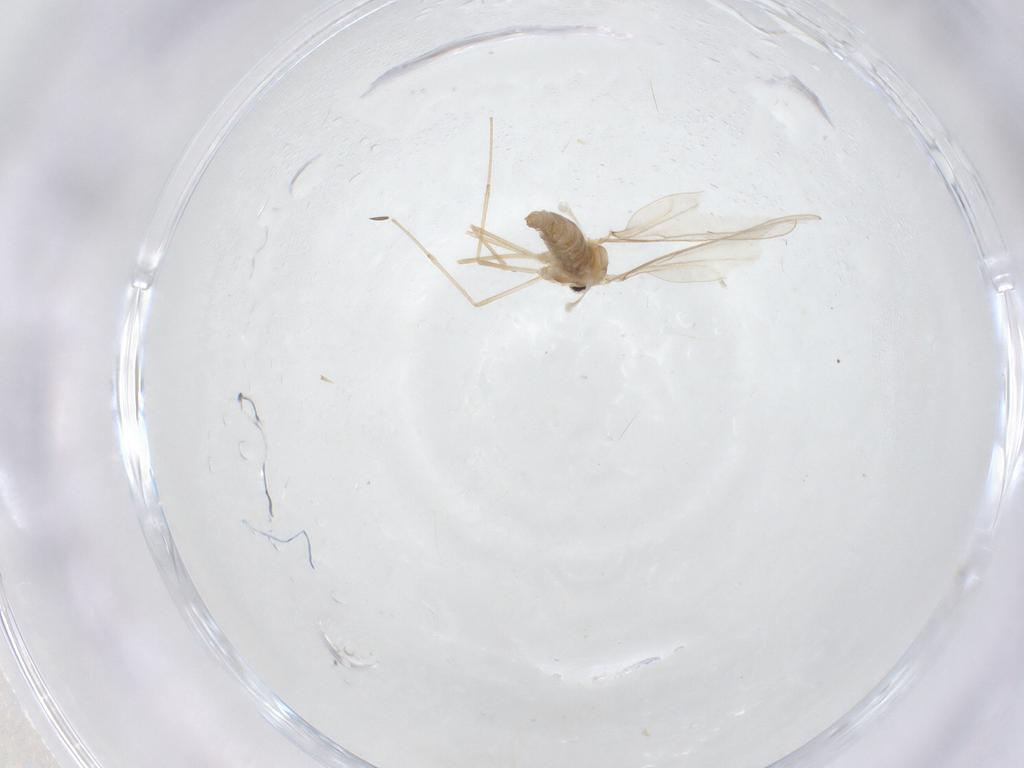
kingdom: Animalia
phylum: Arthropoda
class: Insecta
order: Diptera
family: Cecidomyiidae
